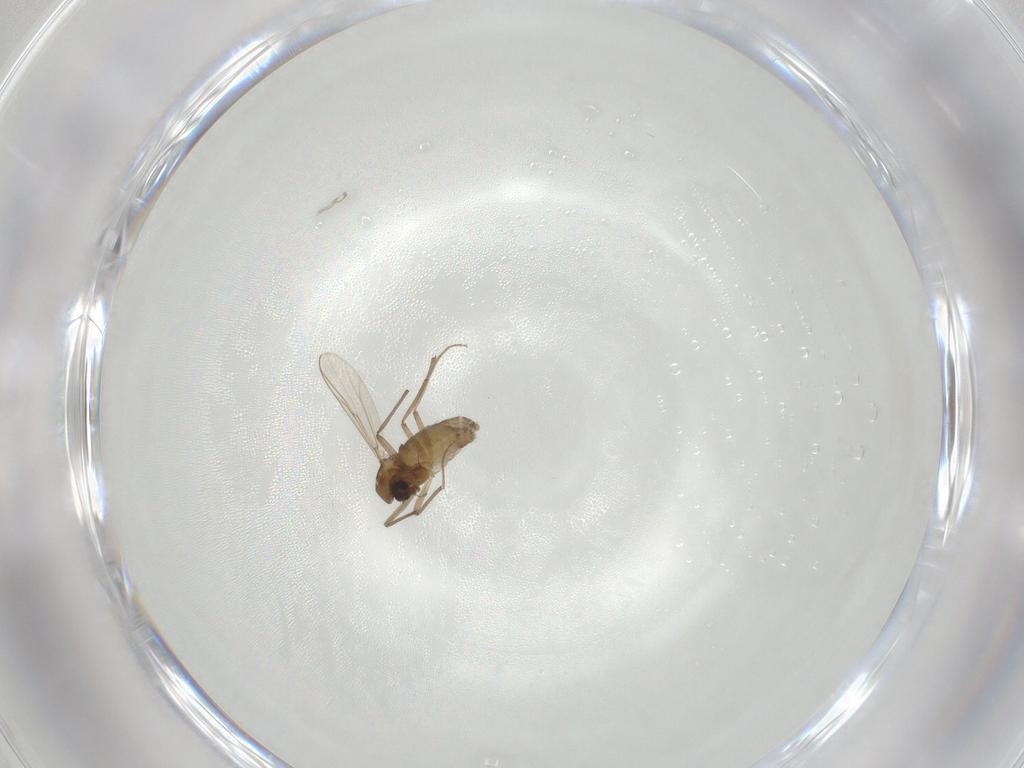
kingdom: Animalia
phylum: Arthropoda
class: Insecta
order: Diptera
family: Chironomidae
